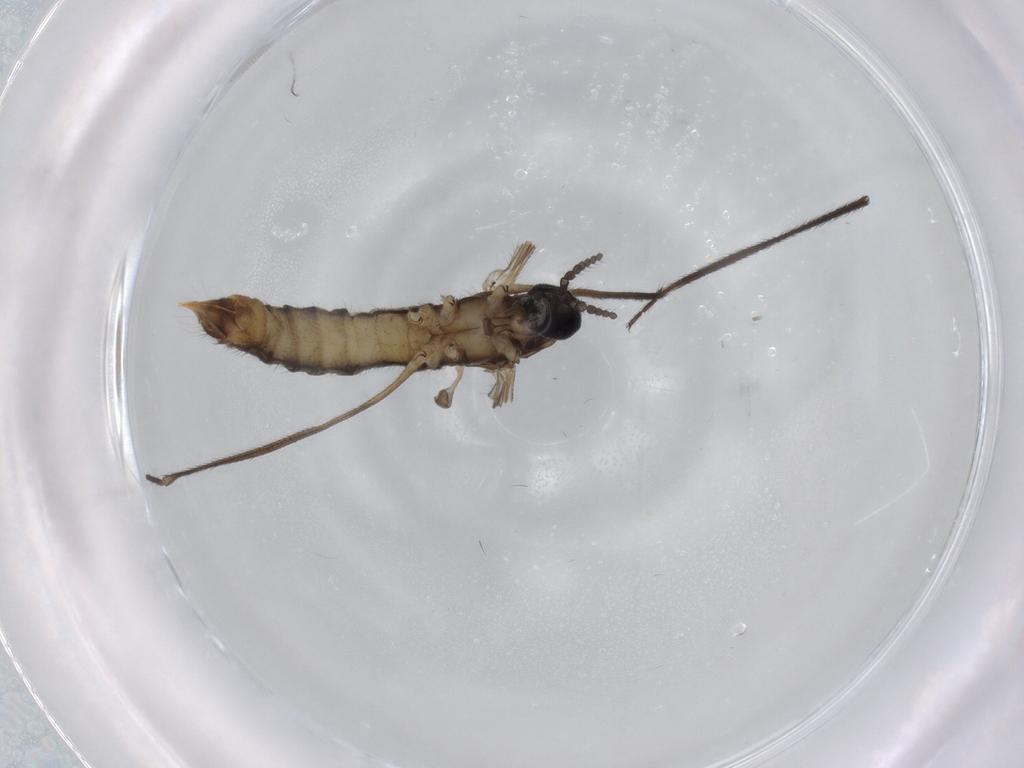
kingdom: Animalia
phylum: Arthropoda
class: Insecta
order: Diptera
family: Limoniidae
